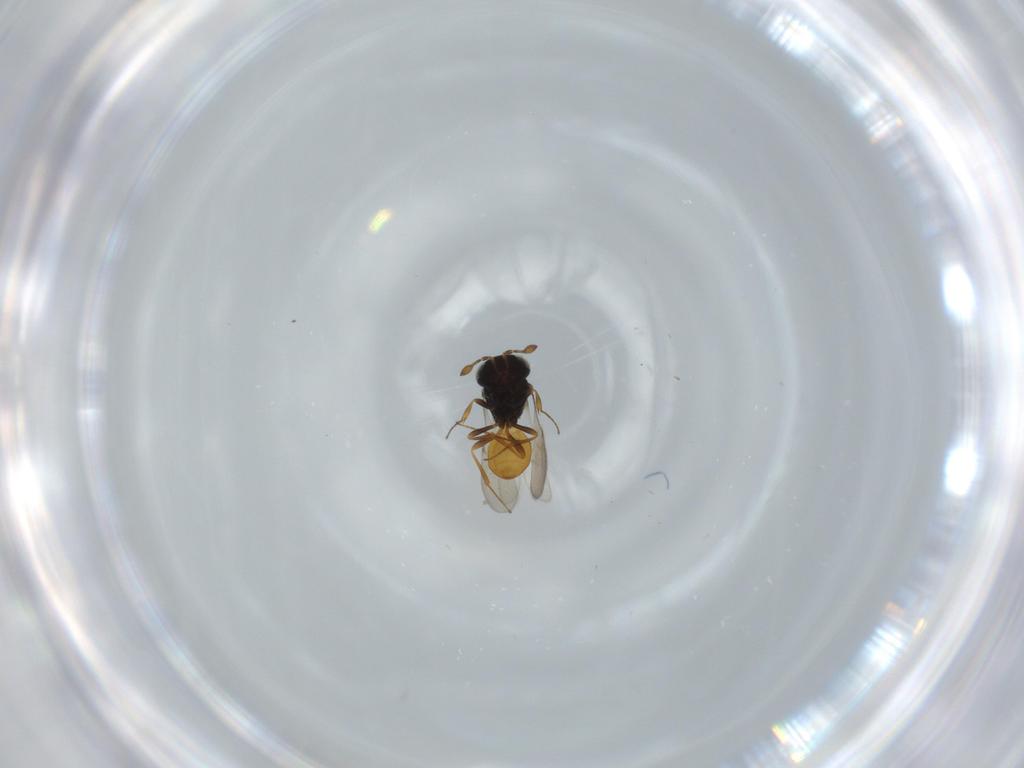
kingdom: Animalia
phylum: Arthropoda
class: Insecta
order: Hymenoptera
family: Scelionidae
